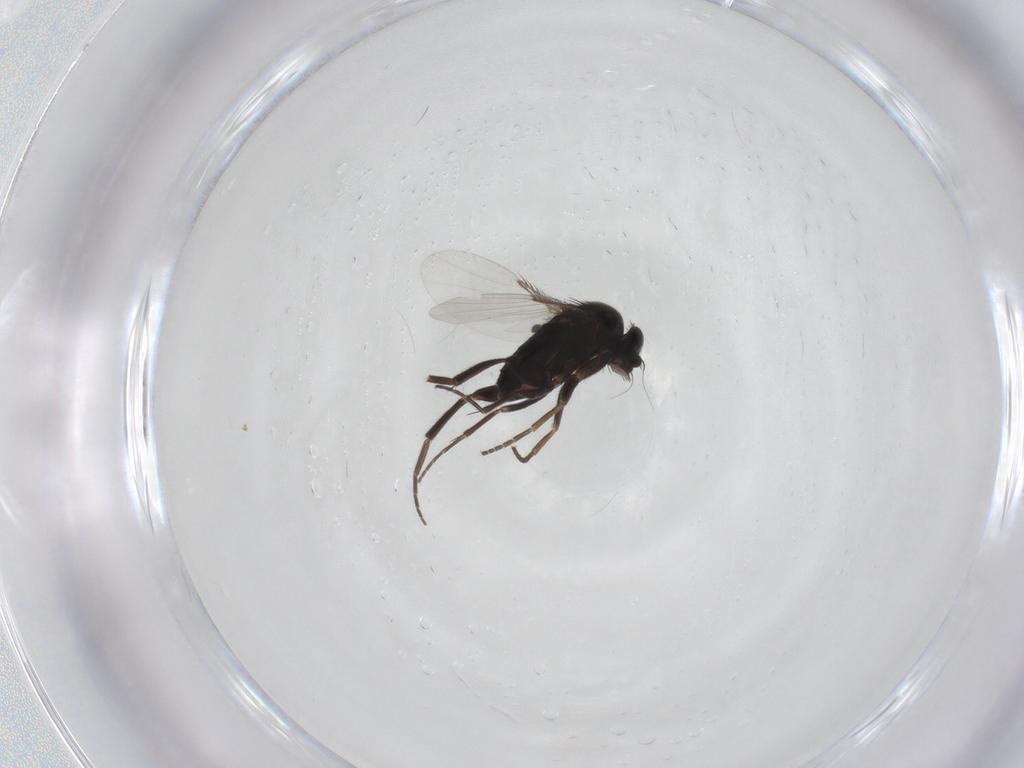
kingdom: Animalia
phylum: Arthropoda
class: Insecta
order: Diptera
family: Phoridae
